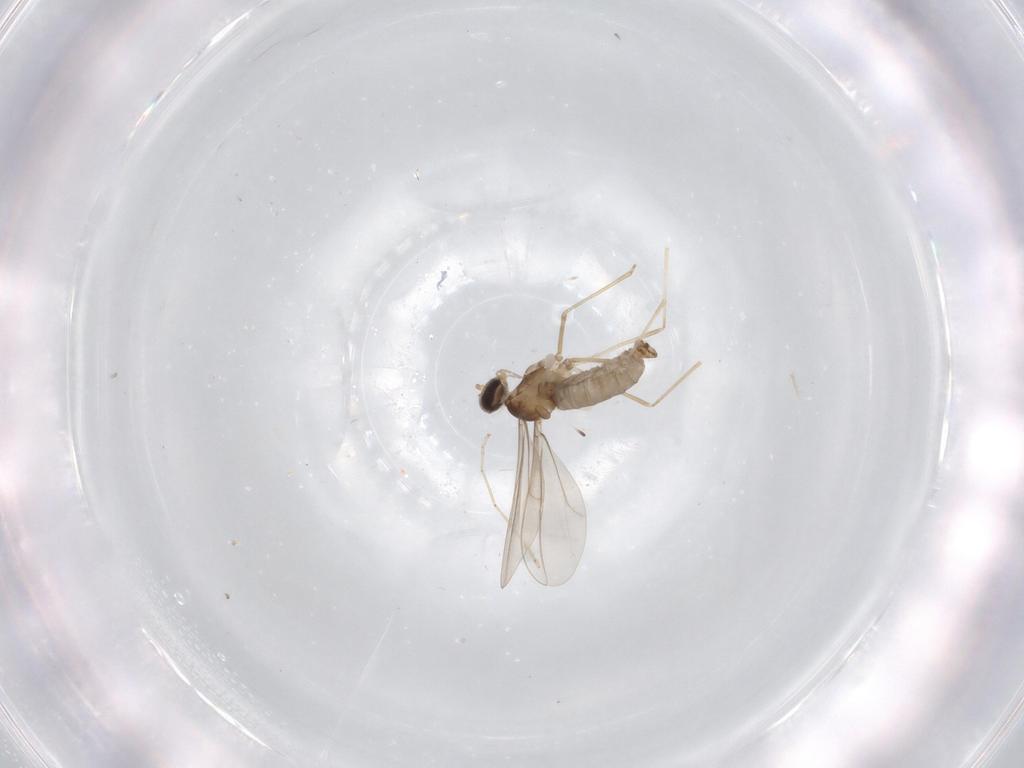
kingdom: Animalia
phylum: Arthropoda
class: Insecta
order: Diptera
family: Cecidomyiidae
